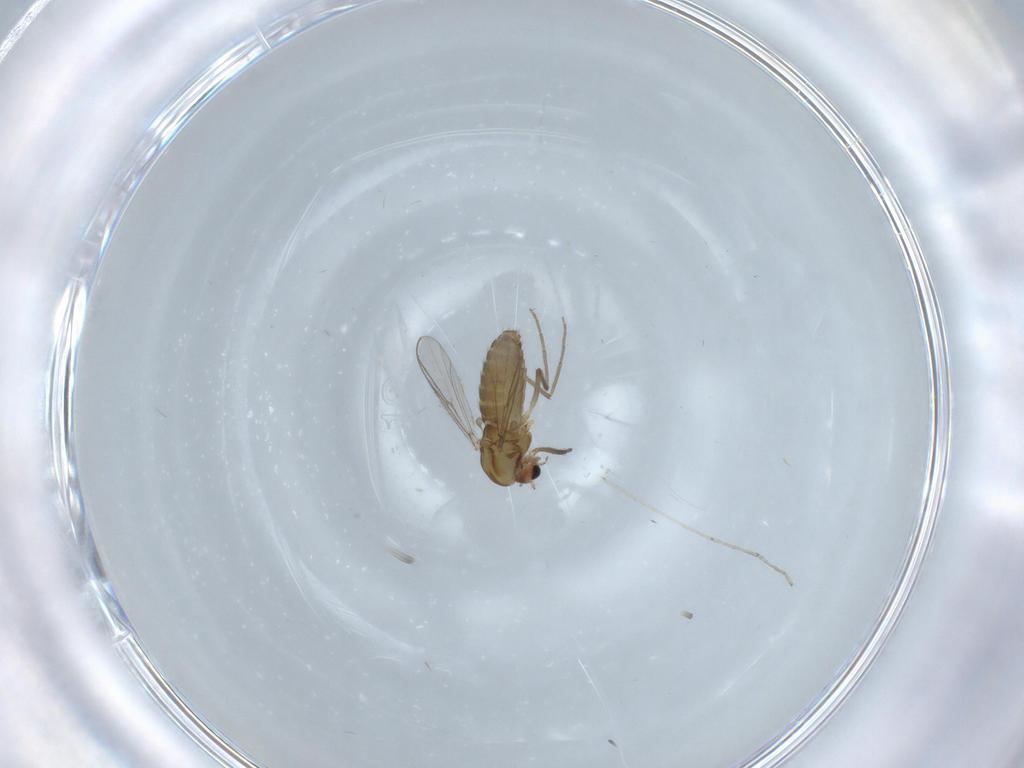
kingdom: Animalia
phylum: Arthropoda
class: Insecta
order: Diptera
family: Chironomidae
